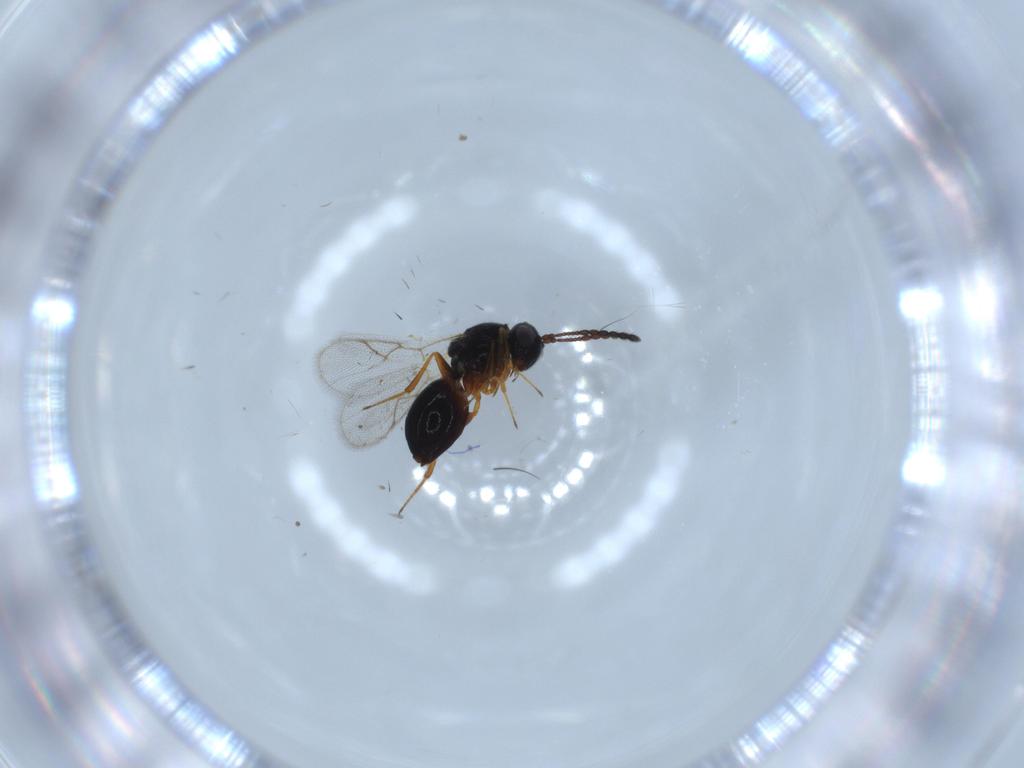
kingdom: Animalia
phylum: Arthropoda
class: Insecta
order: Hymenoptera
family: Figitidae
